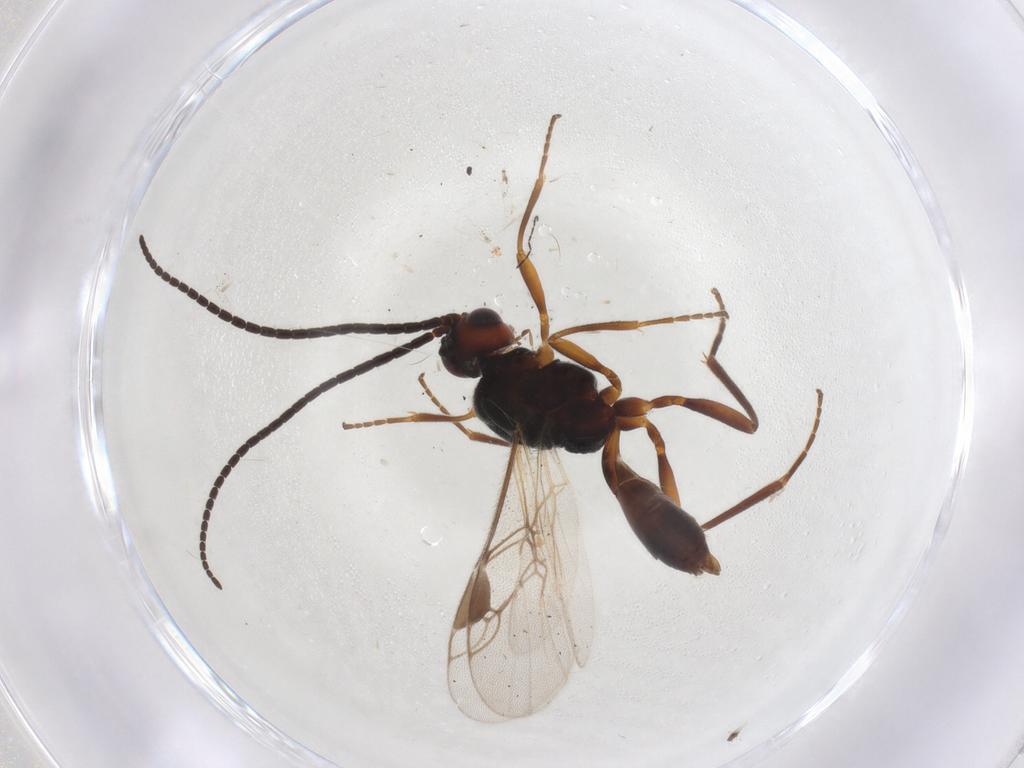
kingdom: Animalia
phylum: Arthropoda
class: Insecta
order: Hymenoptera
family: Braconidae
